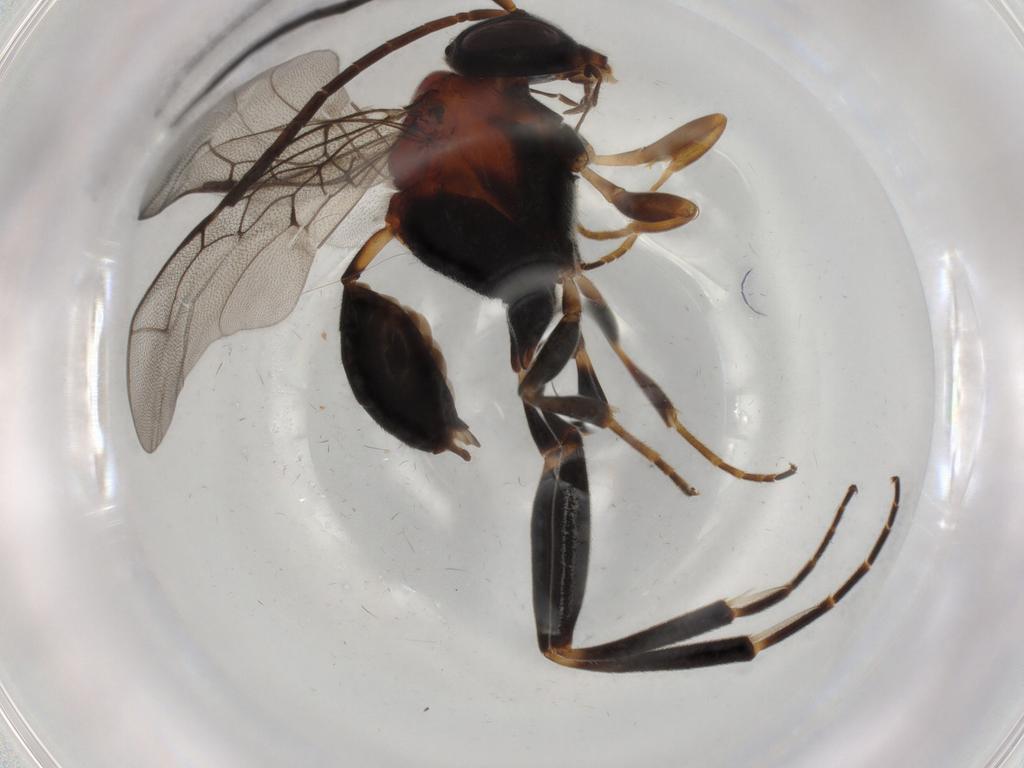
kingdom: Animalia
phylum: Arthropoda
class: Insecta
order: Hymenoptera
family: Evaniidae
